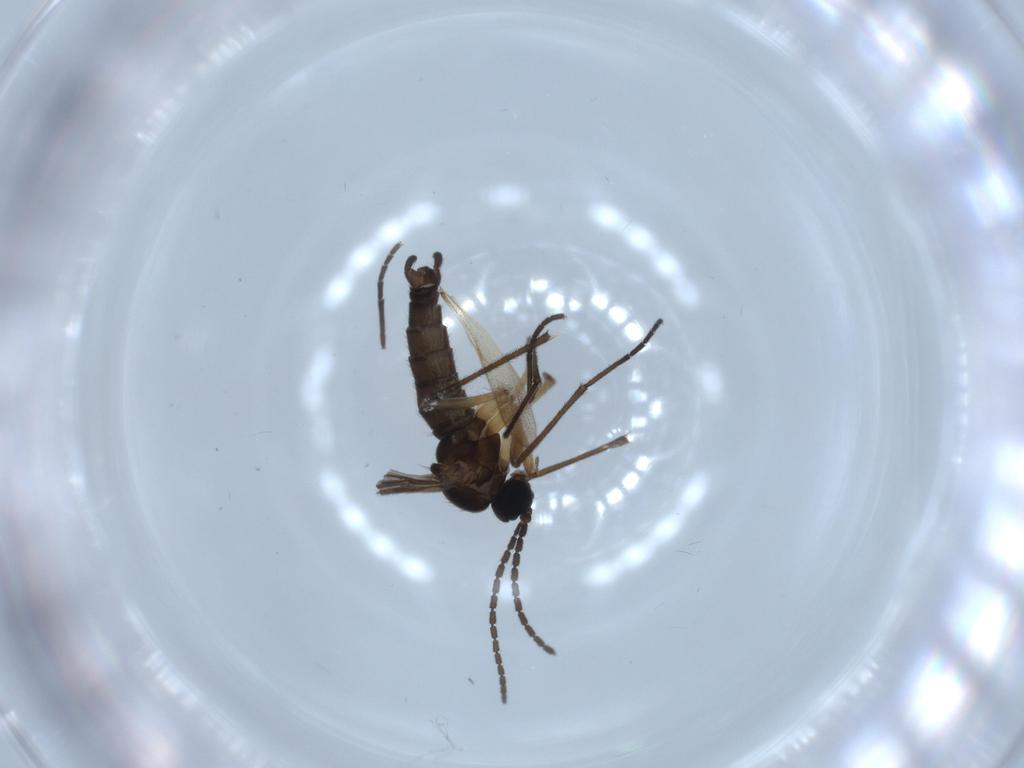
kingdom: Animalia
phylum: Arthropoda
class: Insecta
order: Diptera
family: Sciaridae
